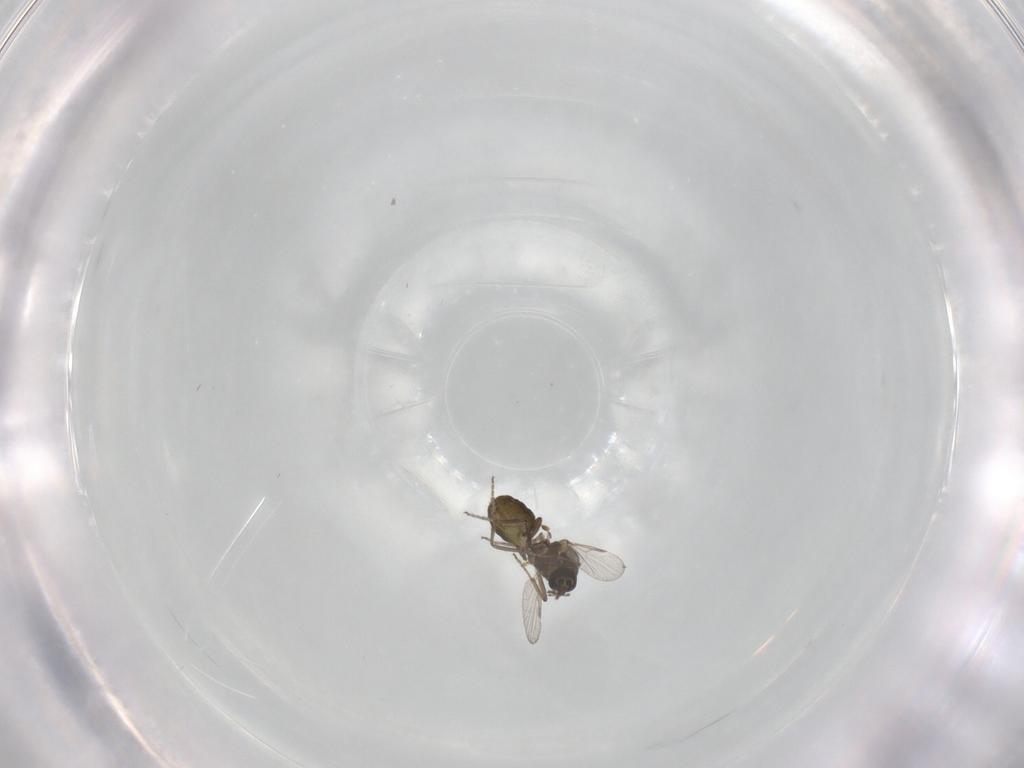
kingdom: Animalia
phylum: Arthropoda
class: Insecta
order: Diptera
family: Ceratopogonidae
